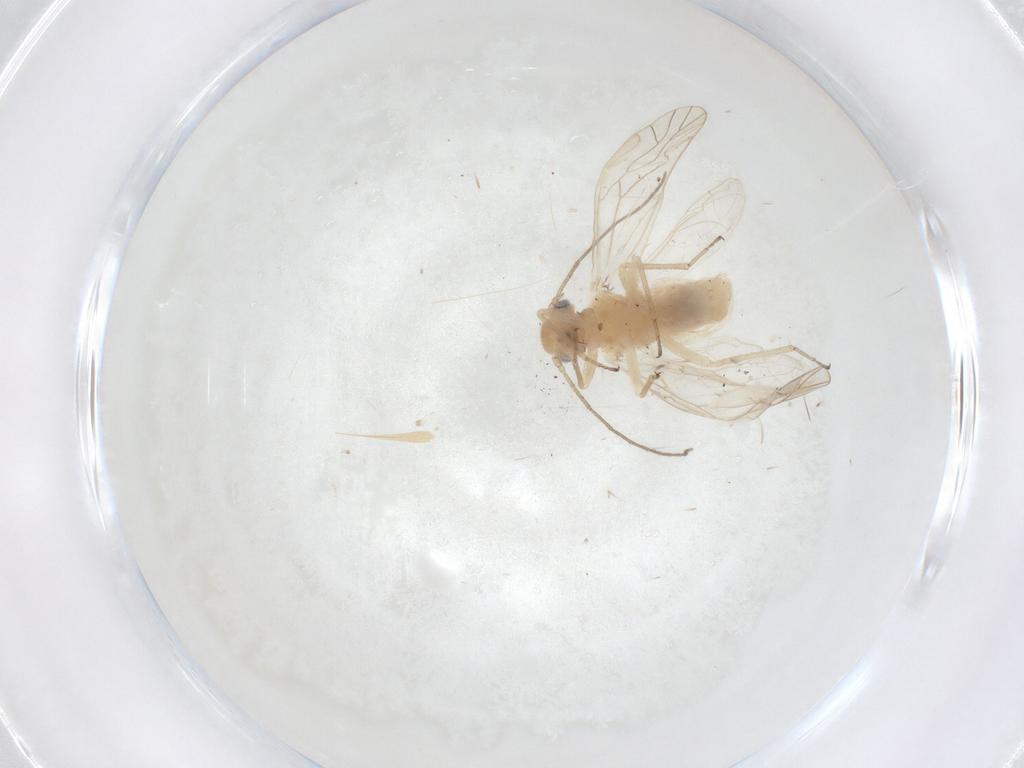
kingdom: Animalia
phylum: Arthropoda
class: Insecta
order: Psocodea
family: Trichopsocidae
